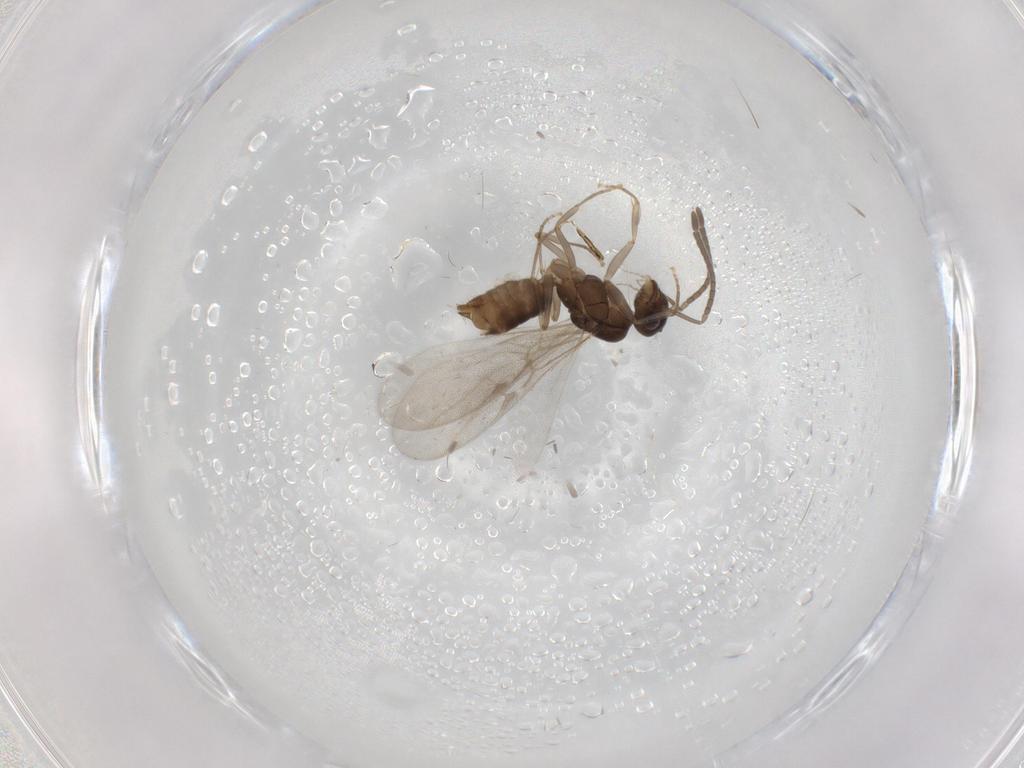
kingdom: Animalia
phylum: Arthropoda
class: Insecta
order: Hymenoptera
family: Formicidae
